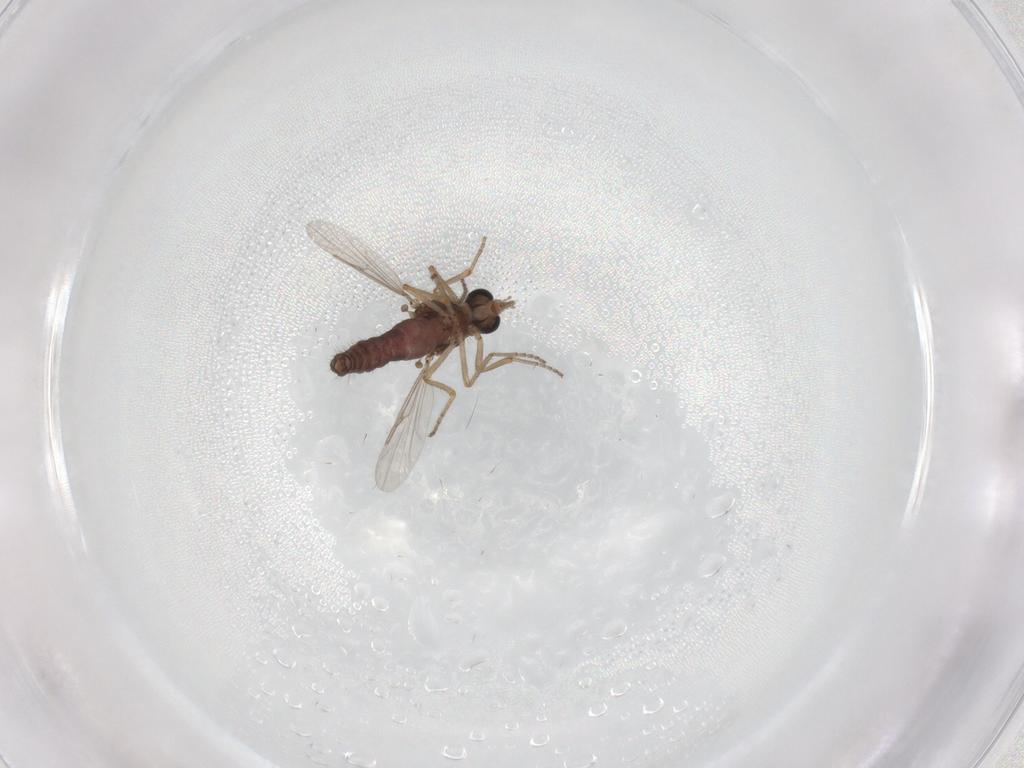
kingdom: Animalia
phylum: Arthropoda
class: Insecta
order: Diptera
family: Ceratopogonidae
